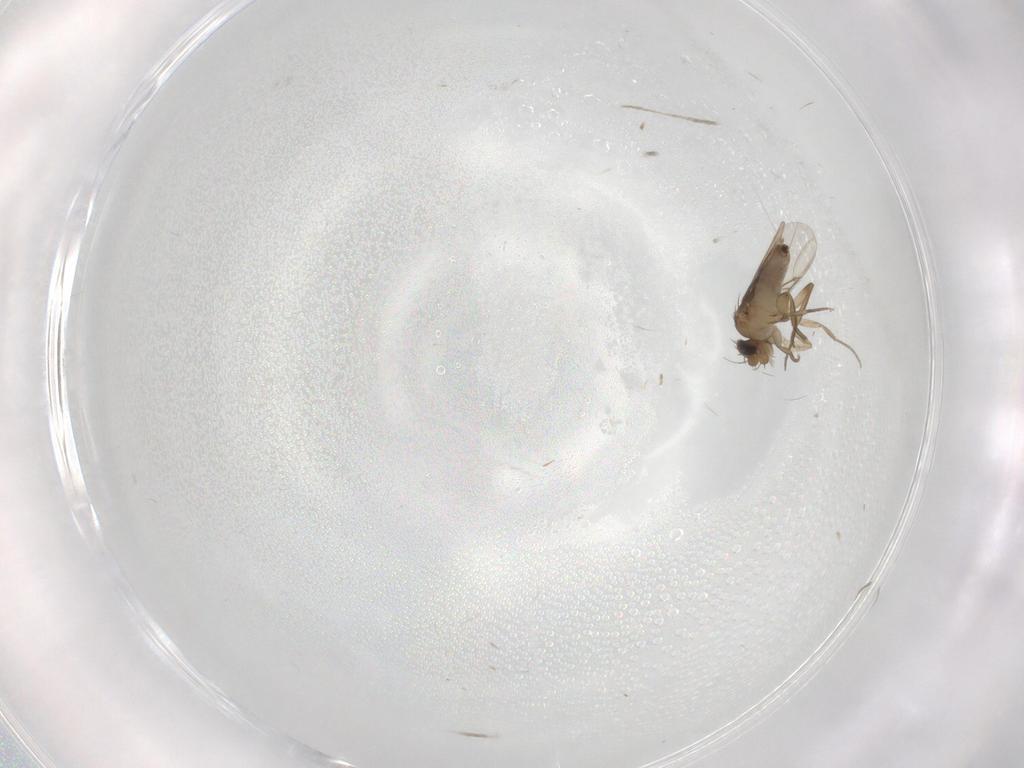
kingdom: Animalia
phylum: Arthropoda
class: Insecta
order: Diptera
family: Phoridae
